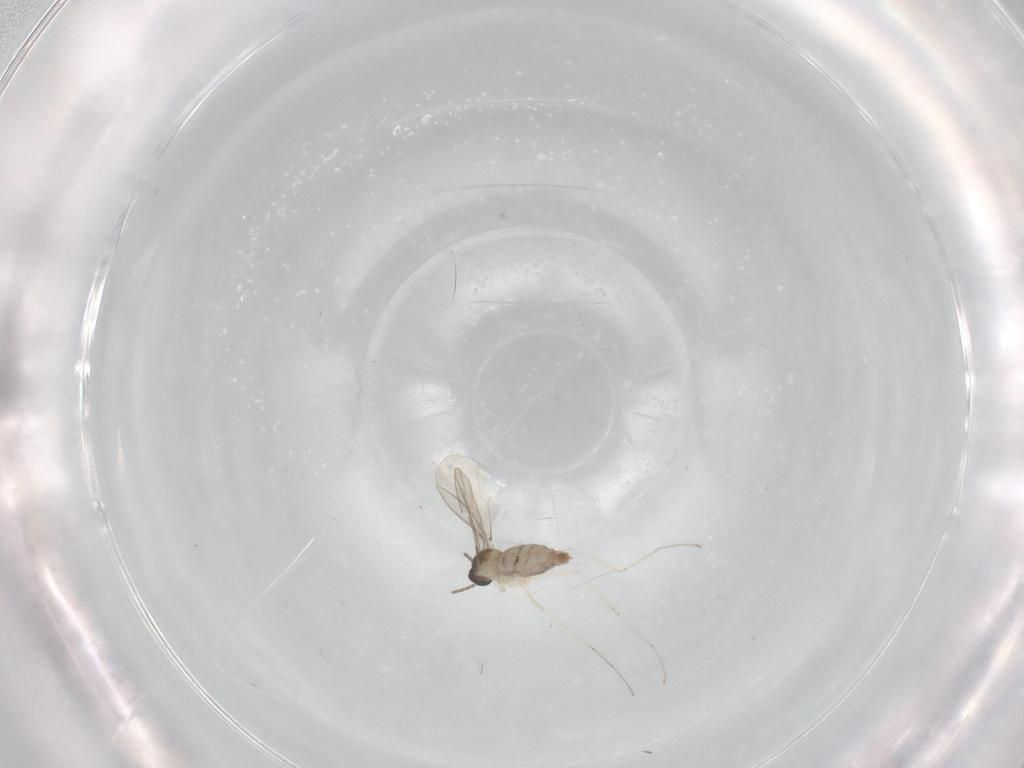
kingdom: Animalia
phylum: Arthropoda
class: Insecta
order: Diptera
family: Cecidomyiidae
